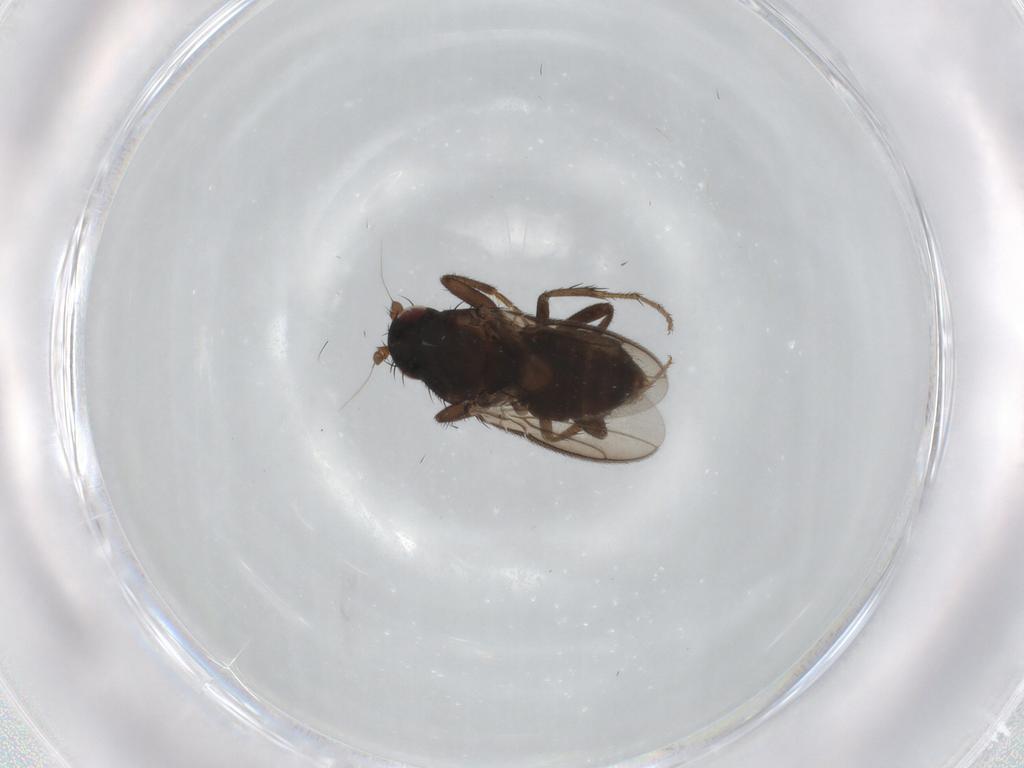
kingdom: Animalia
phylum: Arthropoda
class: Insecta
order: Diptera
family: Sphaeroceridae
